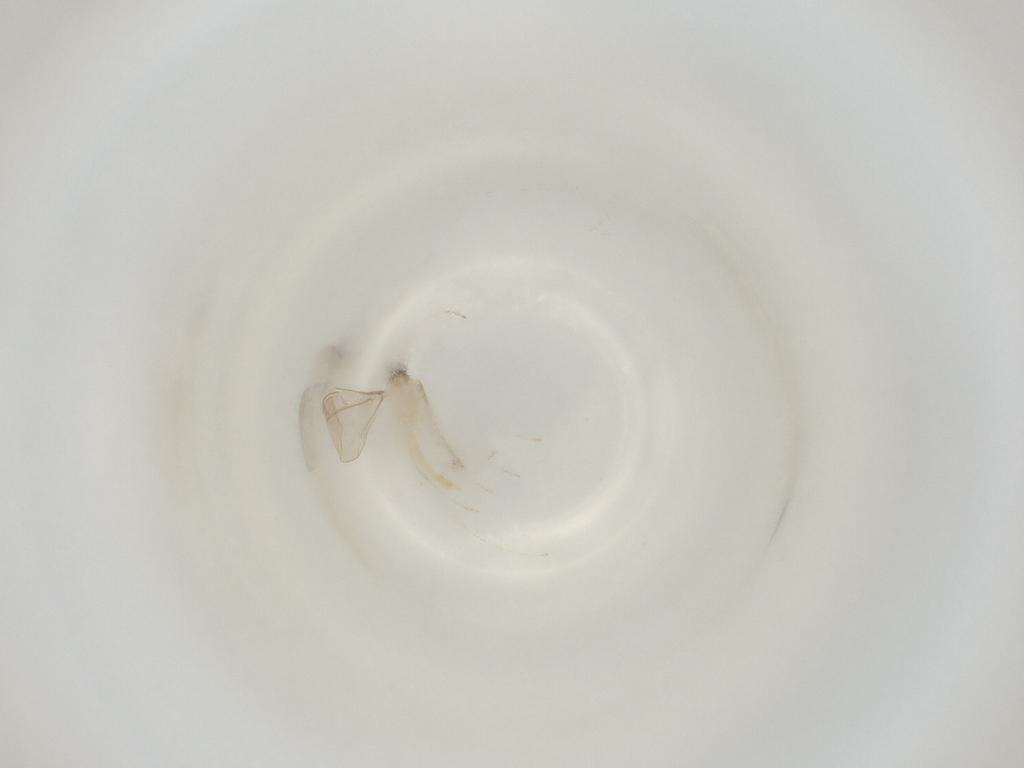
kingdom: Animalia
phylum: Arthropoda
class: Insecta
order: Diptera
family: Cecidomyiidae
